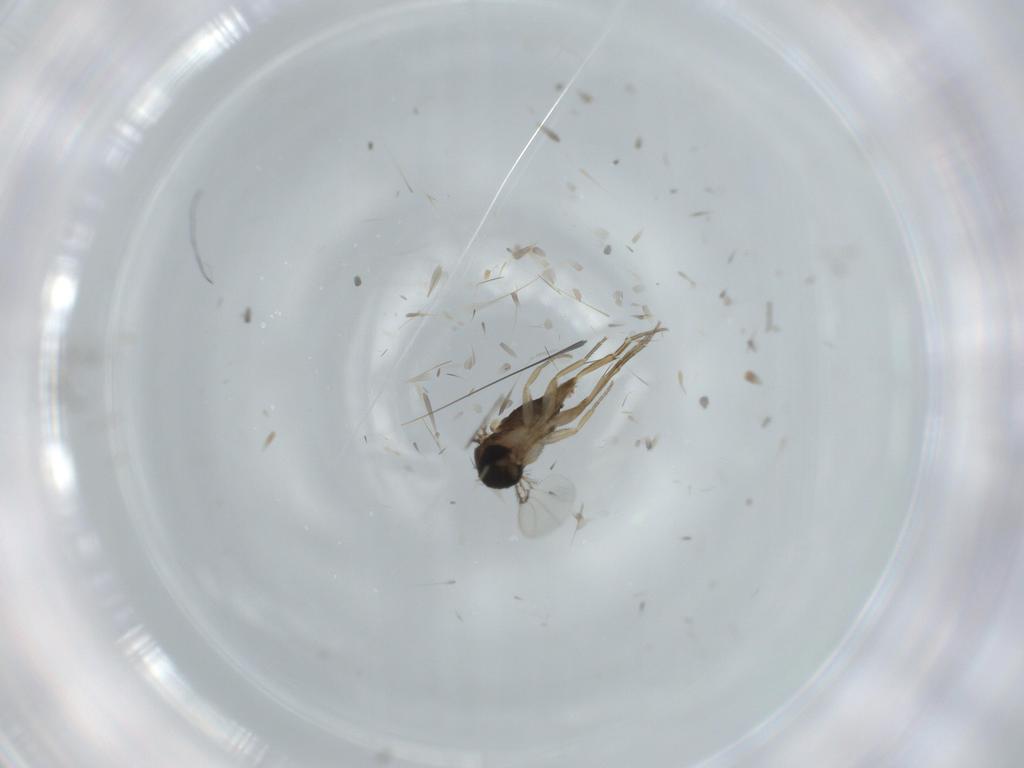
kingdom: Animalia
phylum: Arthropoda
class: Insecta
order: Diptera
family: Phoridae
